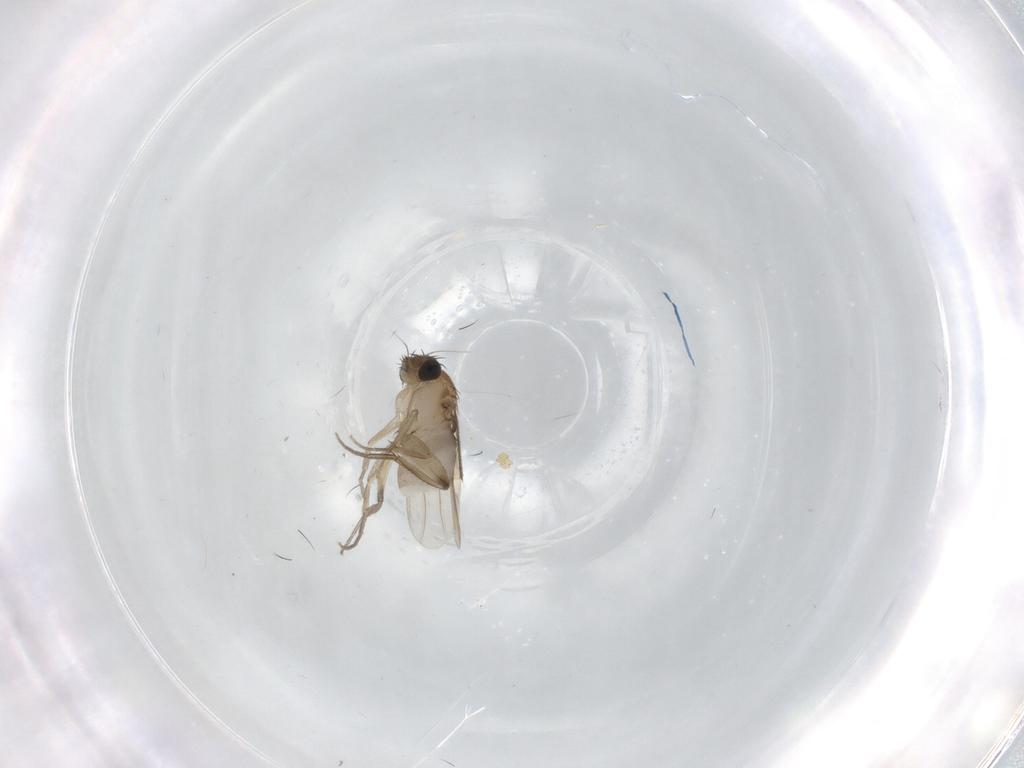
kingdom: Animalia
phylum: Arthropoda
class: Insecta
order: Diptera
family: Phoridae
